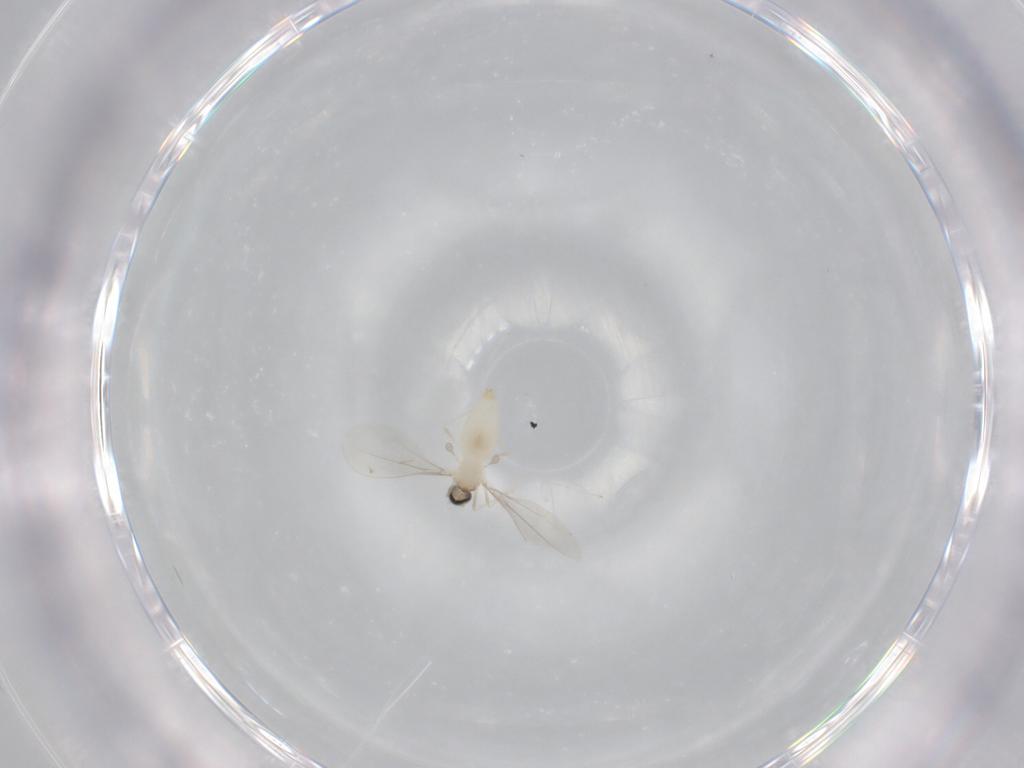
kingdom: Animalia
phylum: Arthropoda
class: Insecta
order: Diptera
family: Cecidomyiidae
